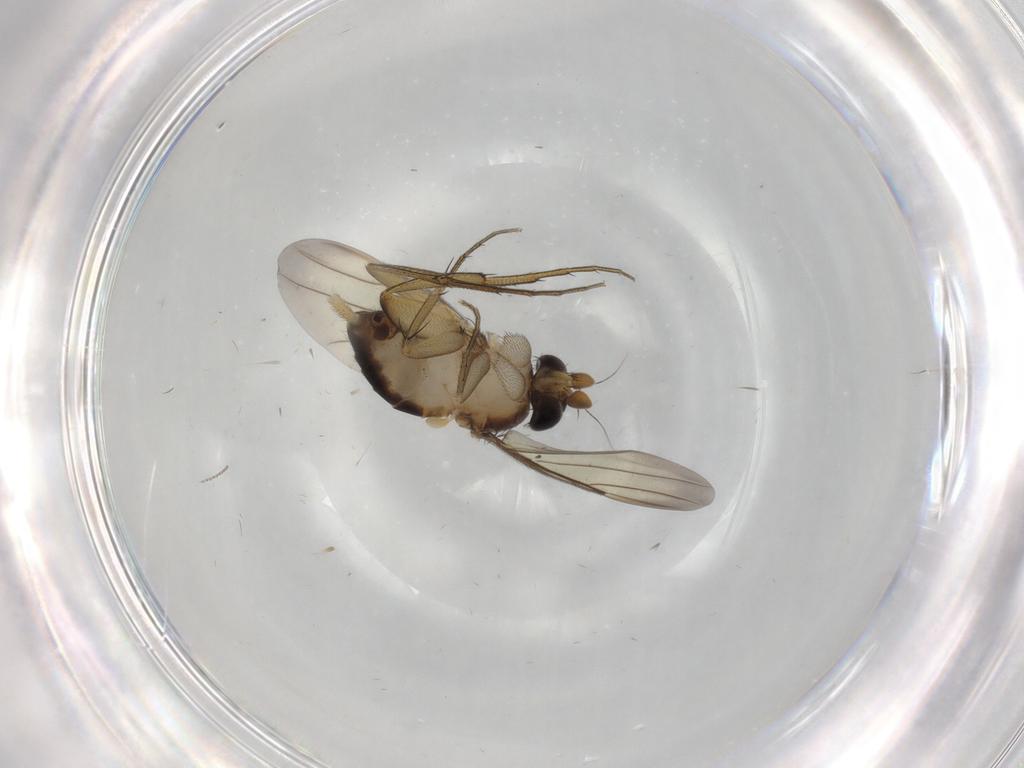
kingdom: Animalia
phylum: Arthropoda
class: Insecta
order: Diptera
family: Phoridae
